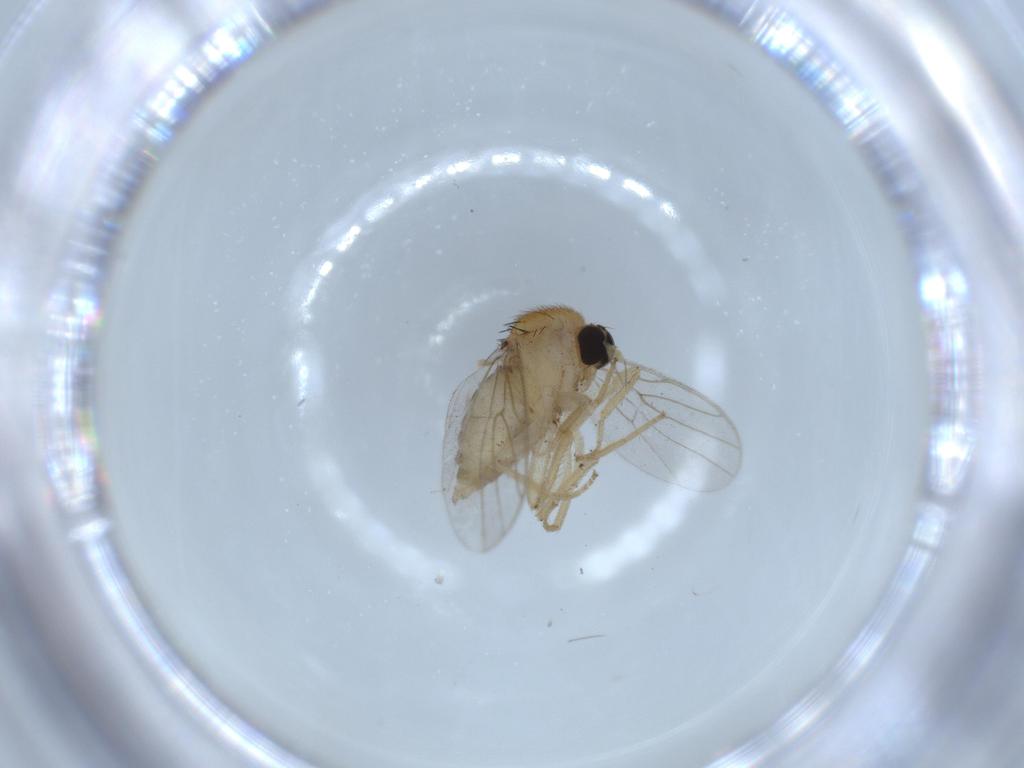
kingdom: Animalia
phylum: Arthropoda
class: Insecta
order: Diptera
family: Hybotidae
